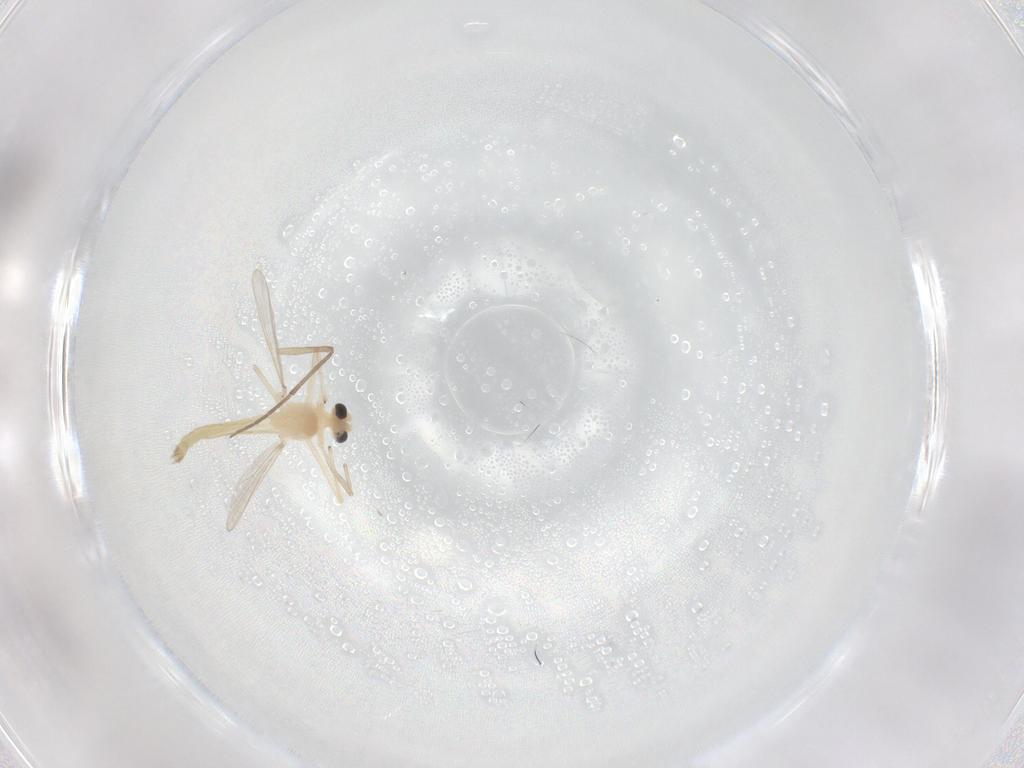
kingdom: Animalia
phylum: Arthropoda
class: Insecta
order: Diptera
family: Chironomidae
